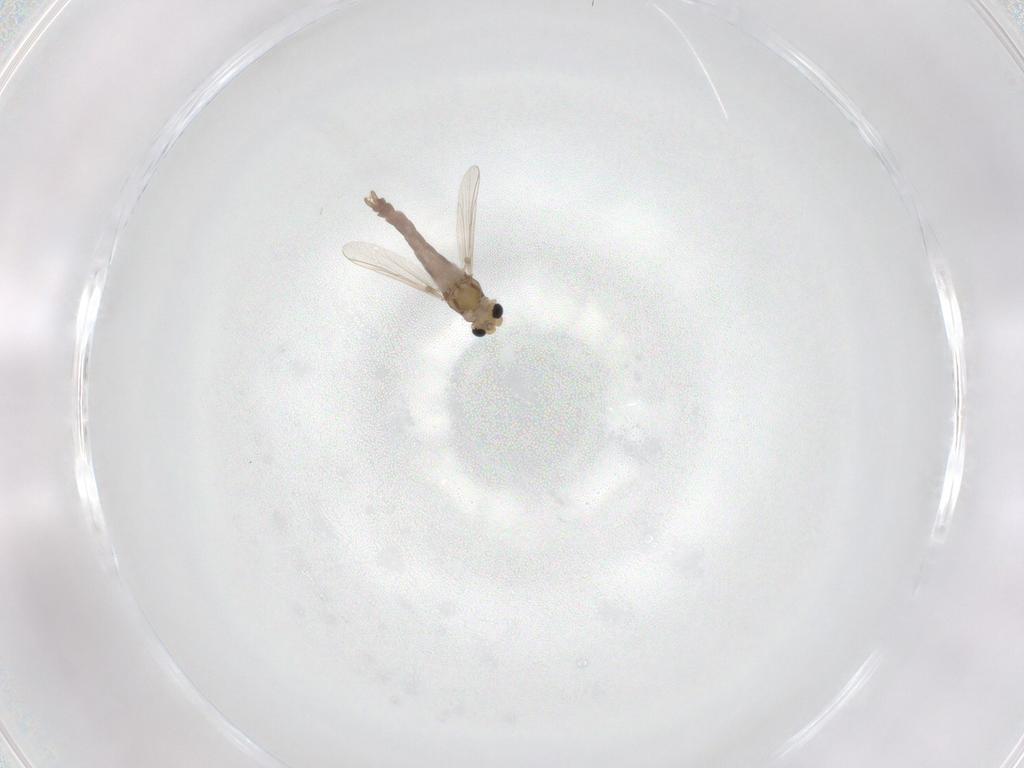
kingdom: Animalia
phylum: Arthropoda
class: Insecta
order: Diptera
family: Chironomidae
